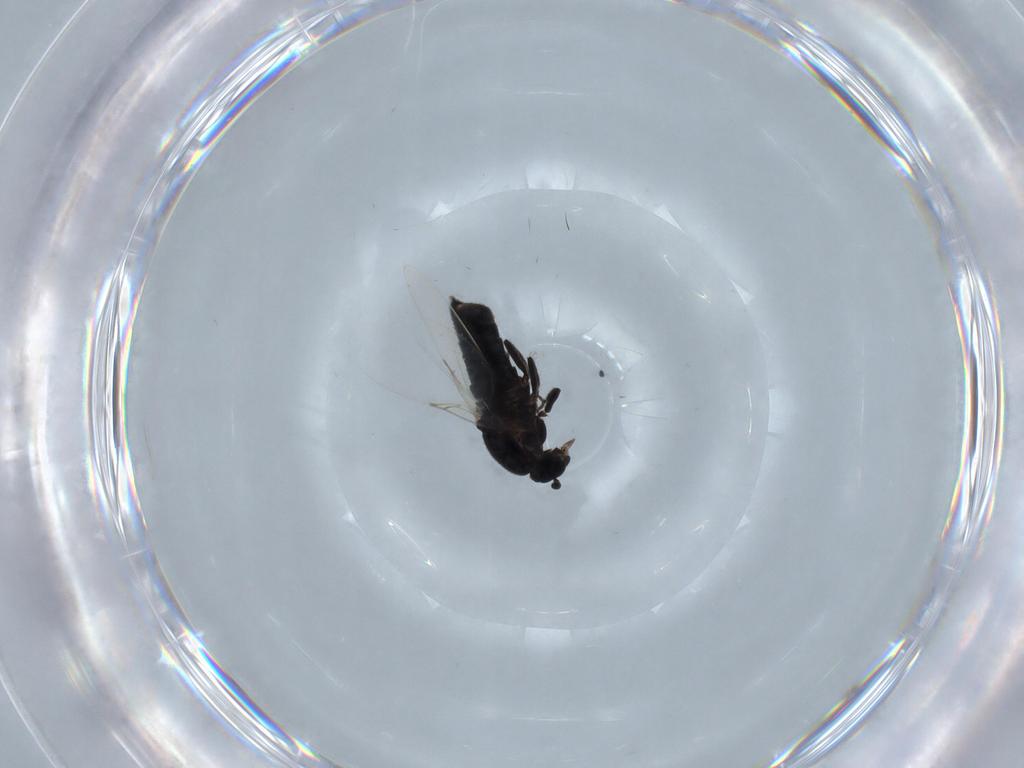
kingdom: Animalia
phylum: Arthropoda
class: Insecta
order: Diptera
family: Scatopsidae
